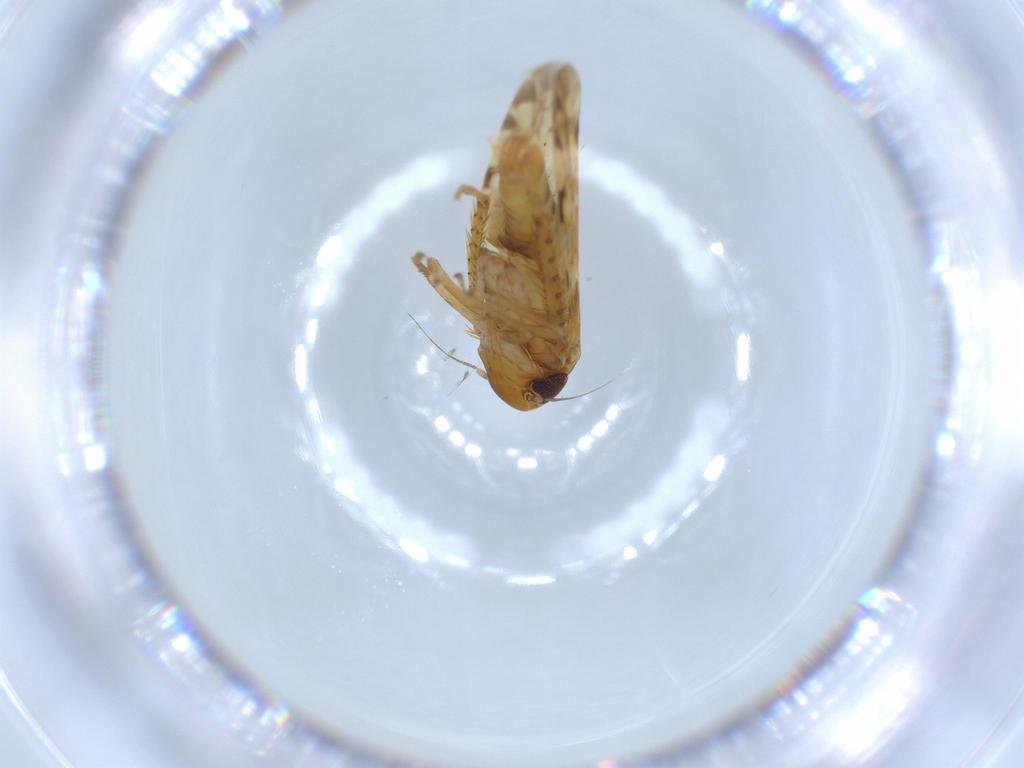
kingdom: Animalia
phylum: Arthropoda
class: Insecta
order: Hemiptera
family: Cicadellidae
